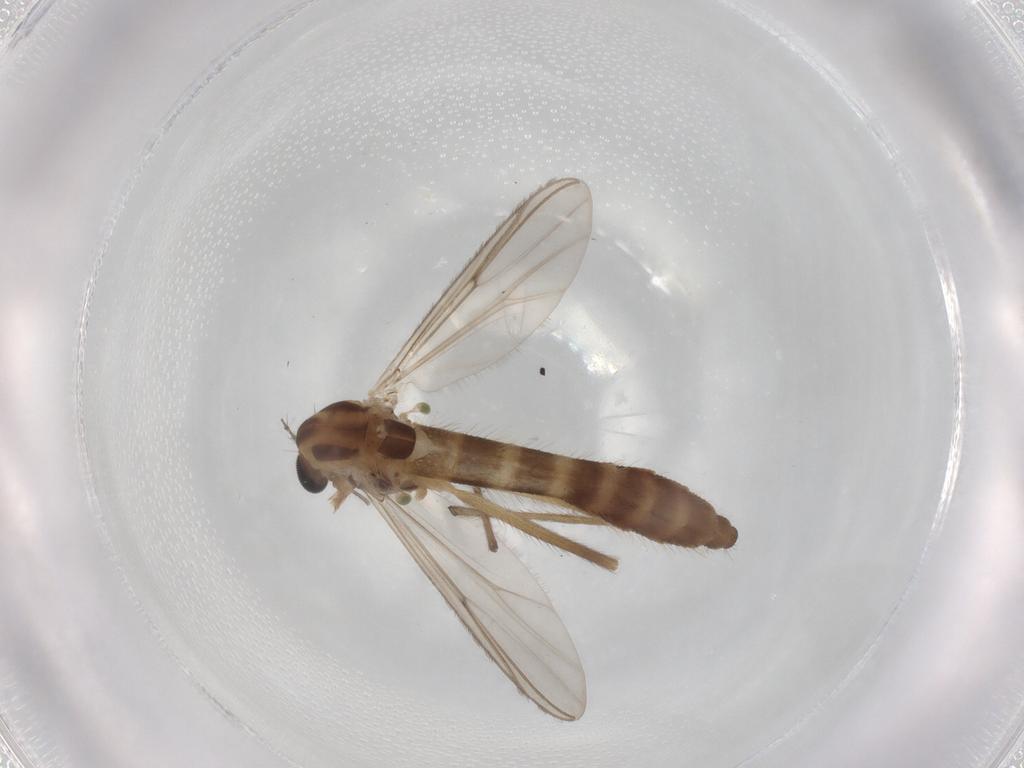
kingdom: Animalia
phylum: Arthropoda
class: Insecta
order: Diptera
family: Chironomidae
